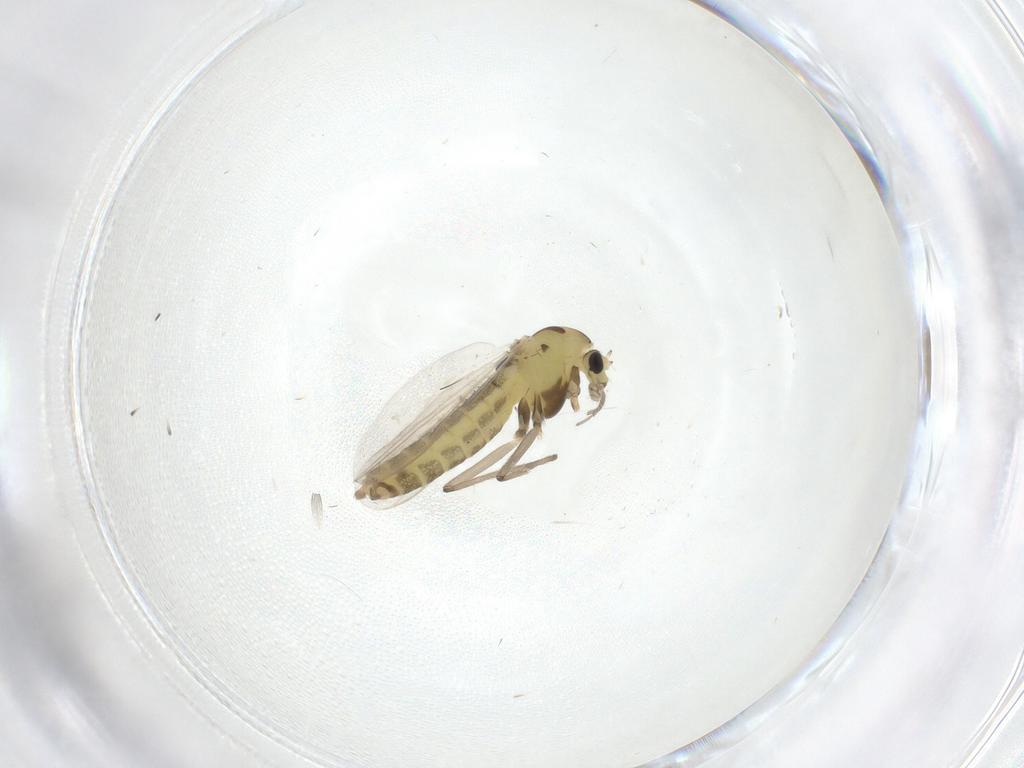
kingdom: Animalia
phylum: Arthropoda
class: Insecta
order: Diptera
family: Chironomidae
